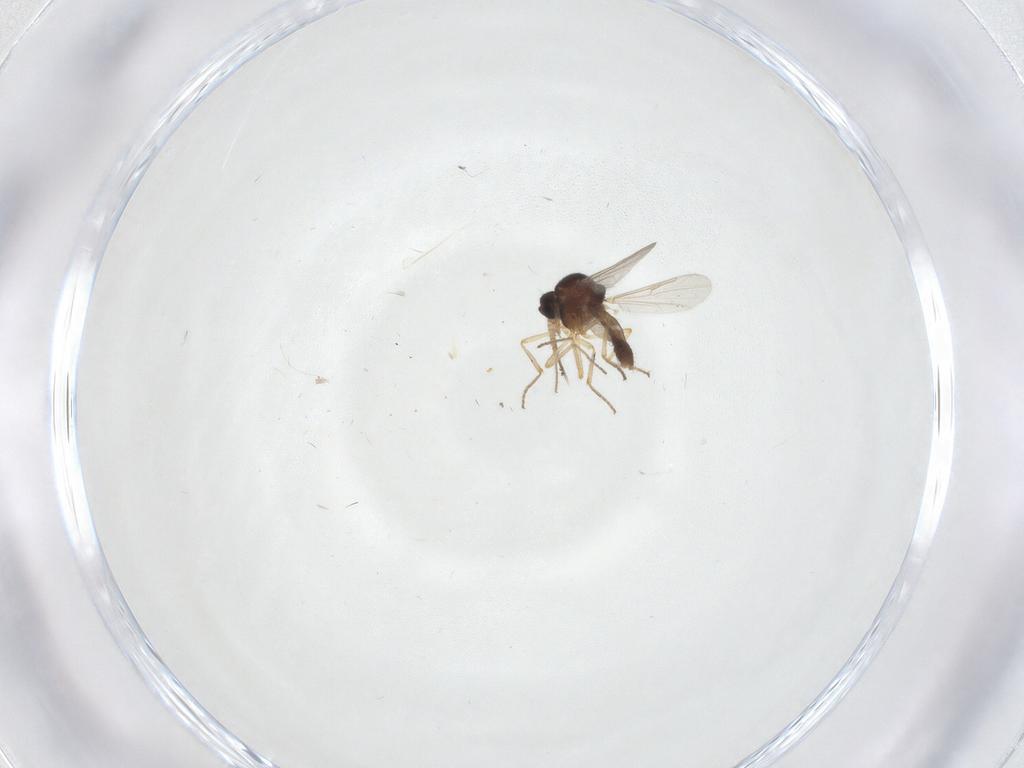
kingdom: Animalia
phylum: Arthropoda
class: Insecta
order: Diptera
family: Ceratopogonidae
